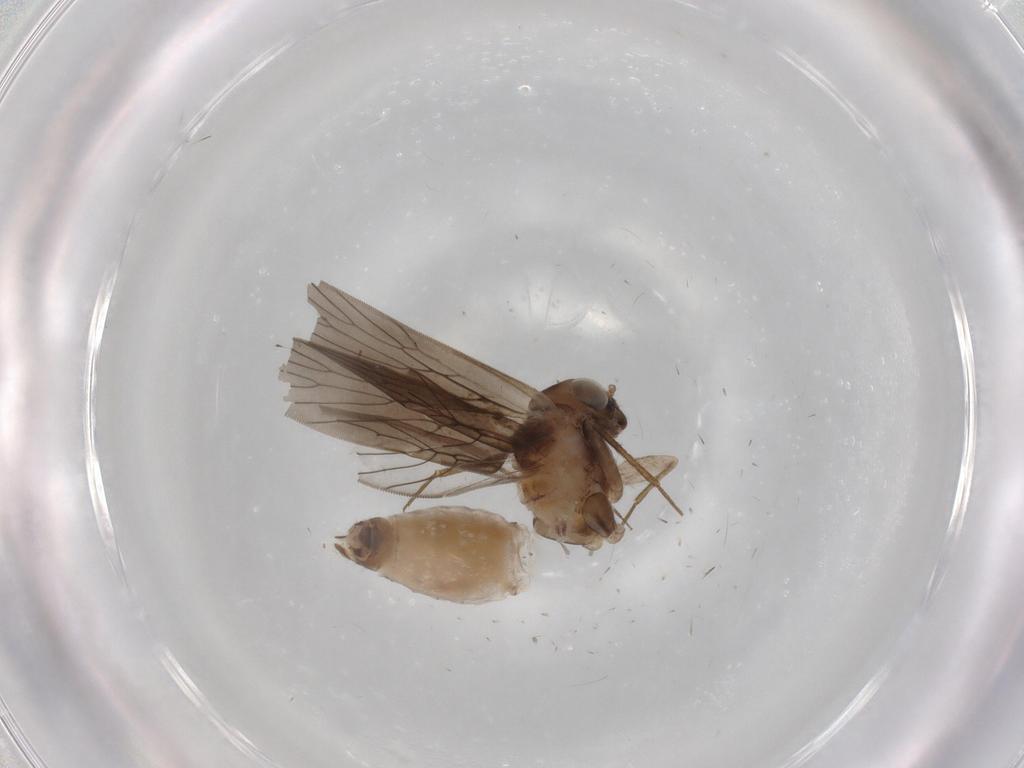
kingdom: Animalia
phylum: Arthropoda
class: Insecta
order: Psocodea
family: Lepidopsocidae
